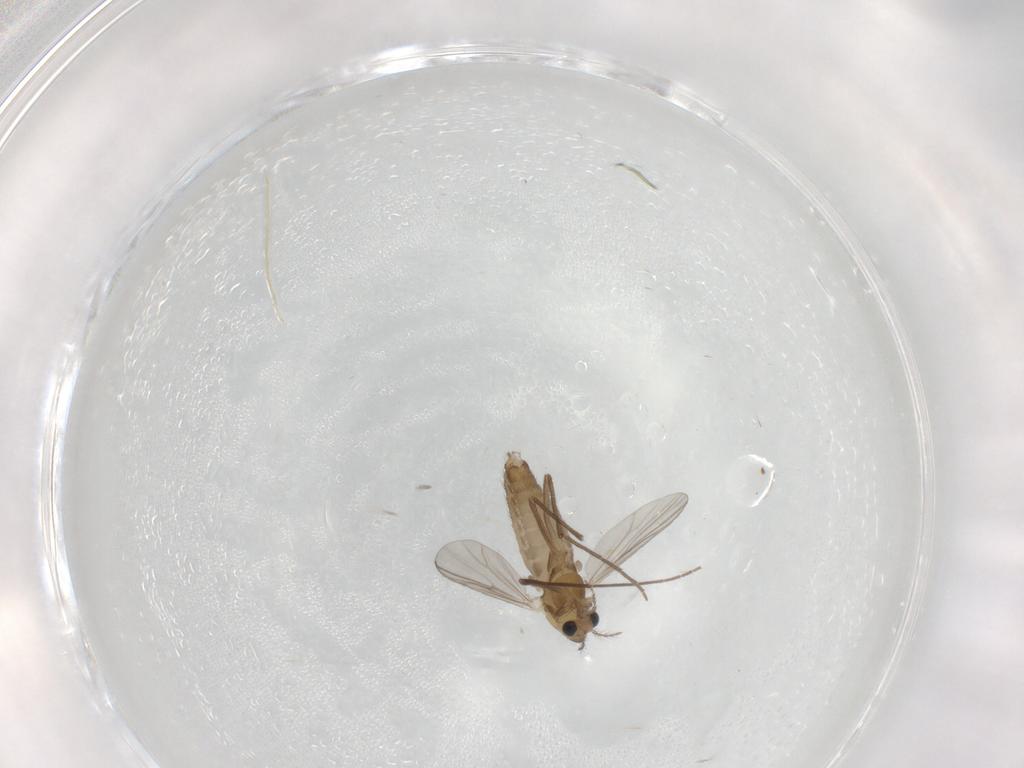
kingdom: Animalia
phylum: Arthropoda
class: Insecta
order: Diptera
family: Chironomidae
